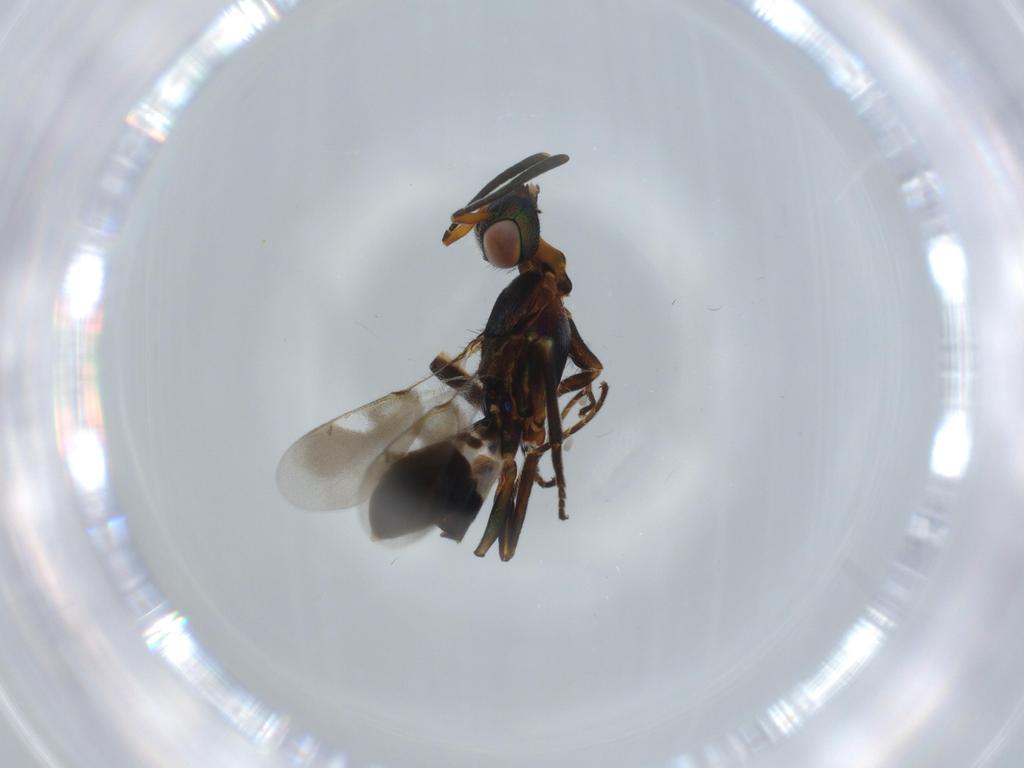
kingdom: Animalia
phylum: Arthropoda
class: Insecta
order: Hymenoptera
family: Eupelmidae
